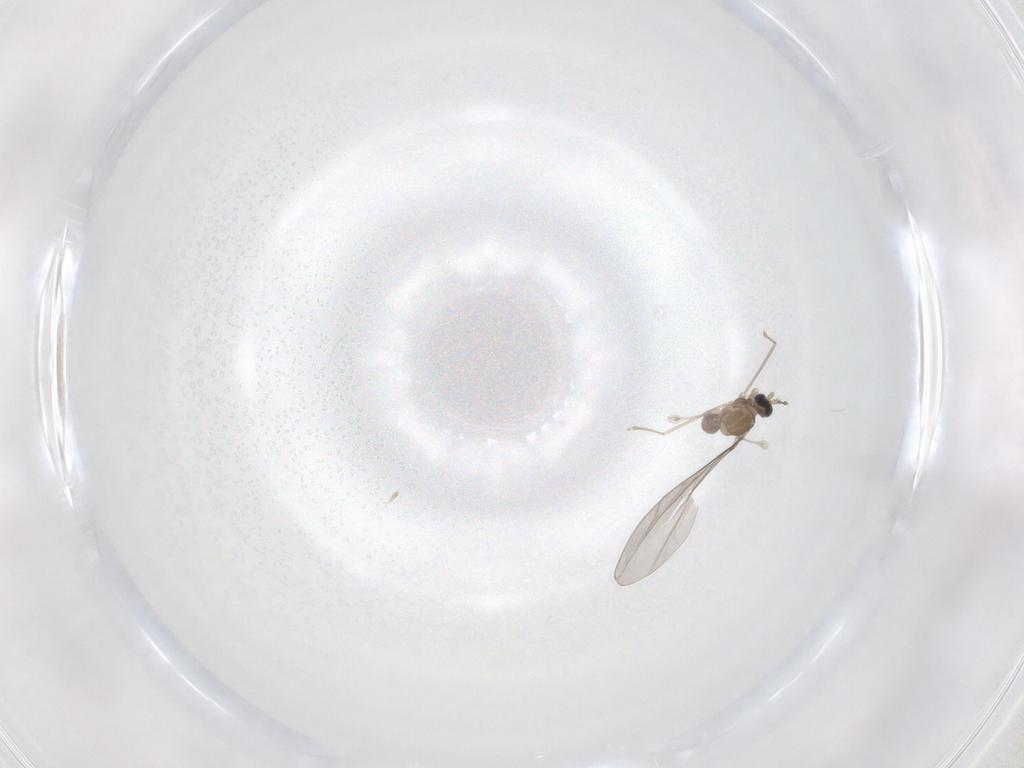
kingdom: Animalia
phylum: Arthropoda
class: Insecta
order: Diptera
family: Cecidomyiidae
